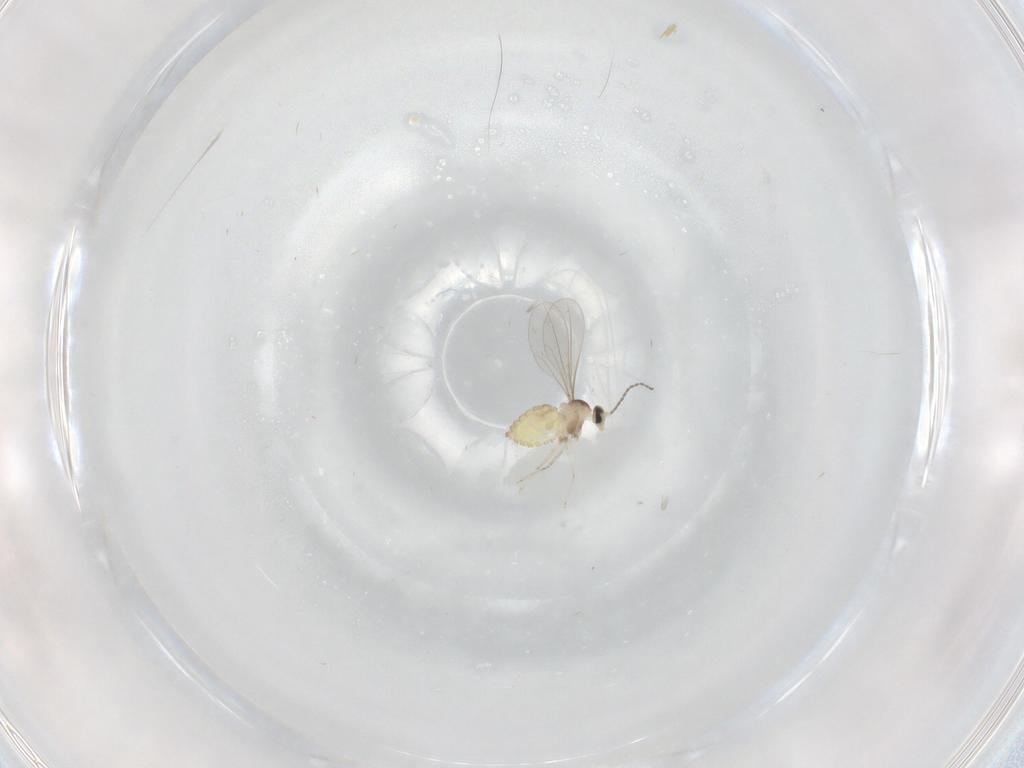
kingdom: Animalia
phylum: Arthropoda
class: Insecta
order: Diptera
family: Cecidomyiidae
